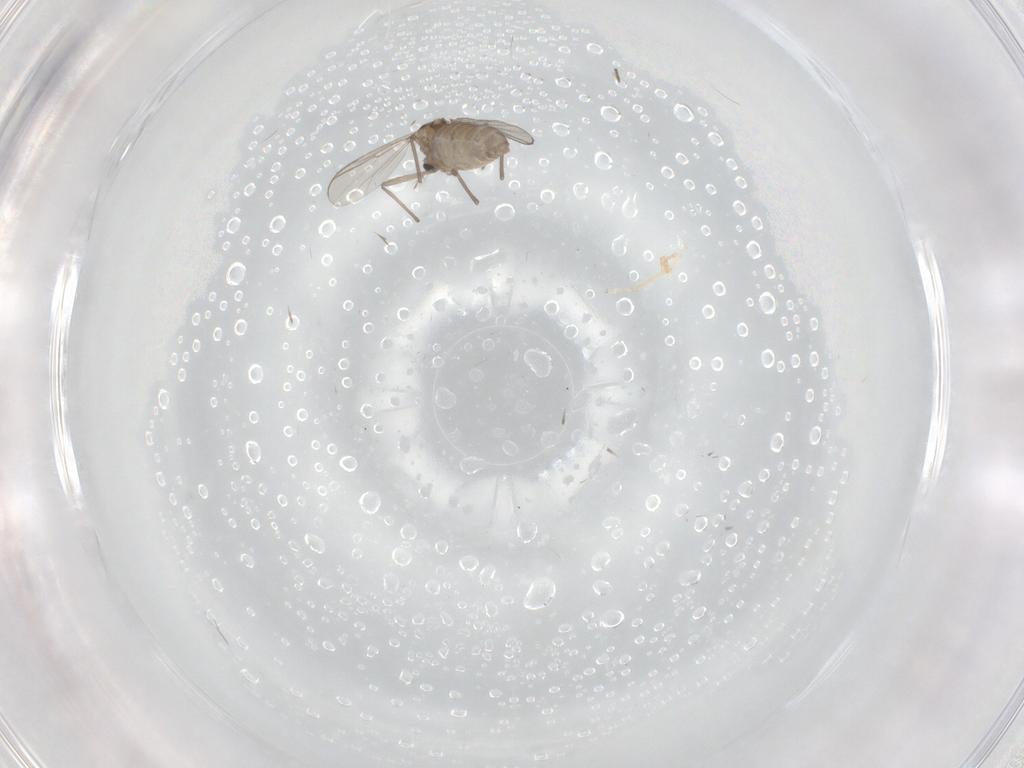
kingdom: Animalia
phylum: Arthropoda
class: Insecta
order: Diptera
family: Chironomidae
